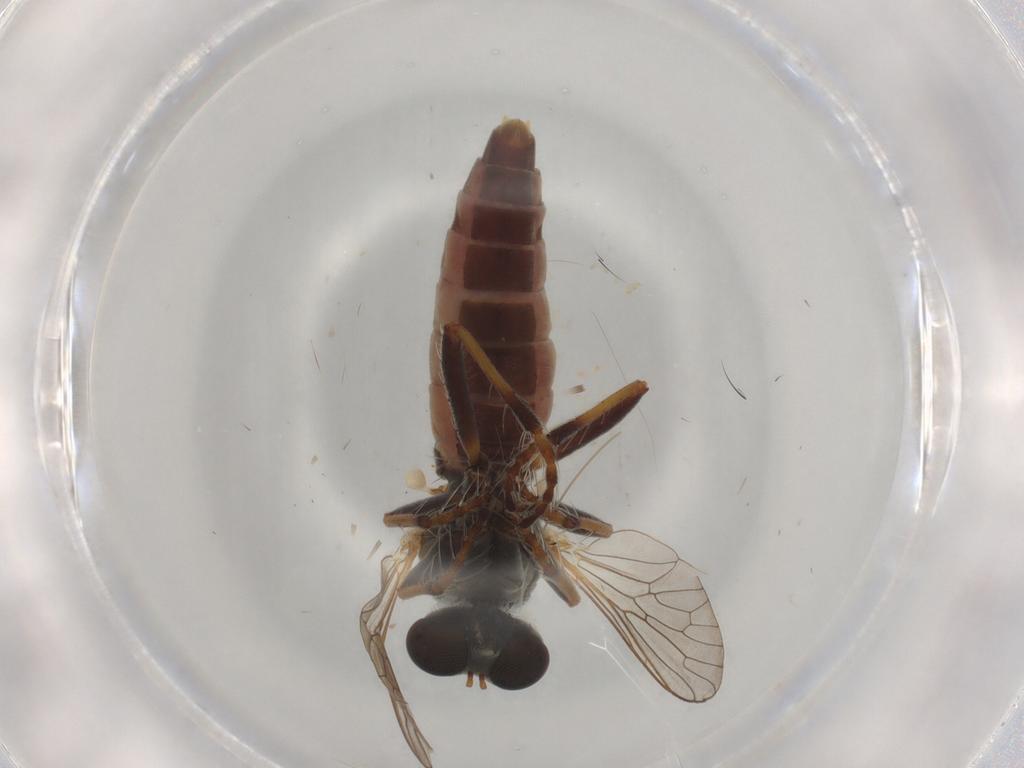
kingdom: Animalia
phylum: Arthropoda
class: Insecta
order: Diptera
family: Asilidae
